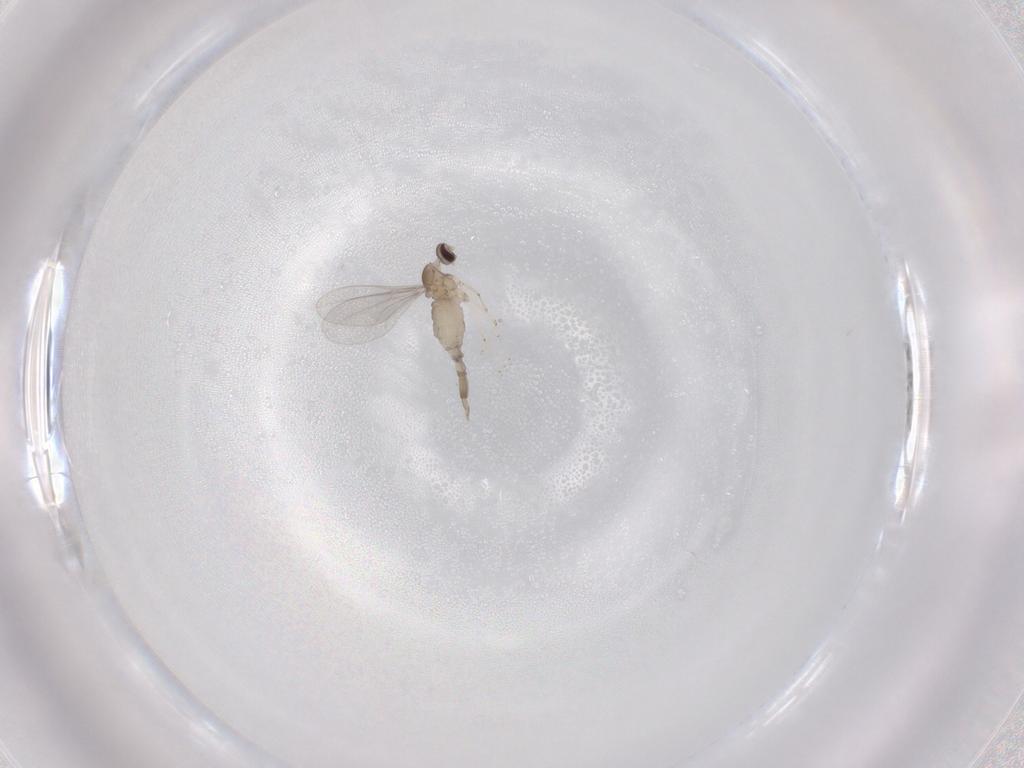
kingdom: Animalia
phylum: Arthropoda
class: Insecta
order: Diptera
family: Cecidomyiidae
